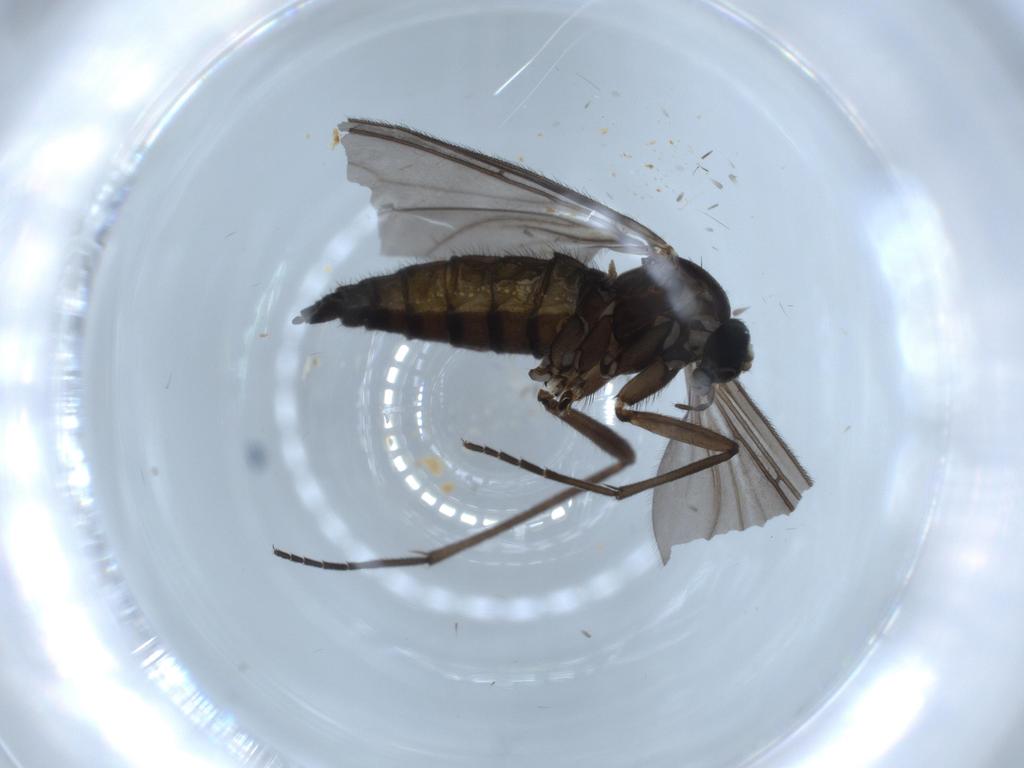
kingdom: Animalia
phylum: Arthropoda
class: Insecta
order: Diptera
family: Sciaridae
